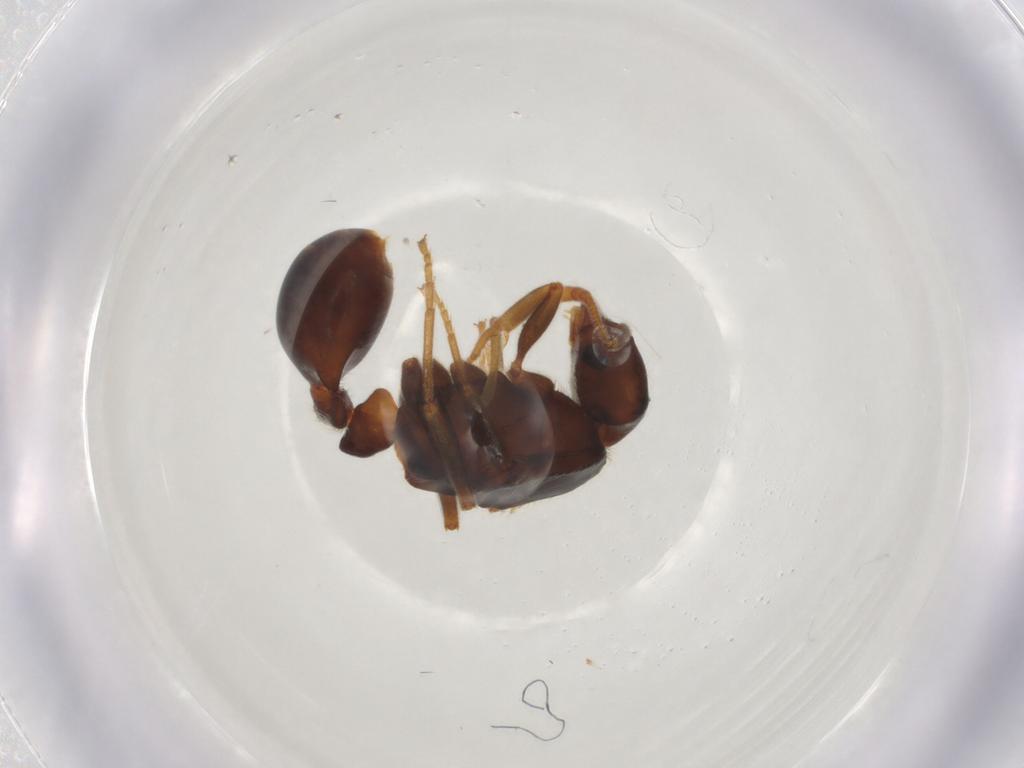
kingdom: Animalia
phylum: Arthropoda
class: Insecta
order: Hymenoptera
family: Formicidae
